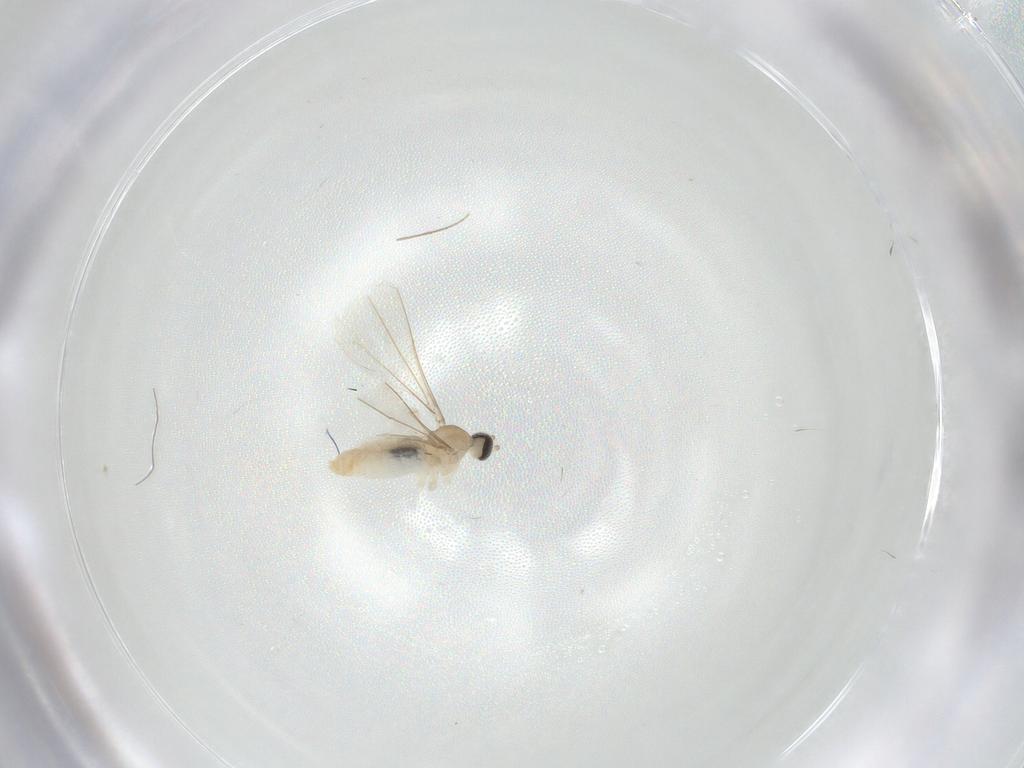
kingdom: Animalia
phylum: Arthropoda
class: Insecta
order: Diptera
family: Cecidomyiidae
